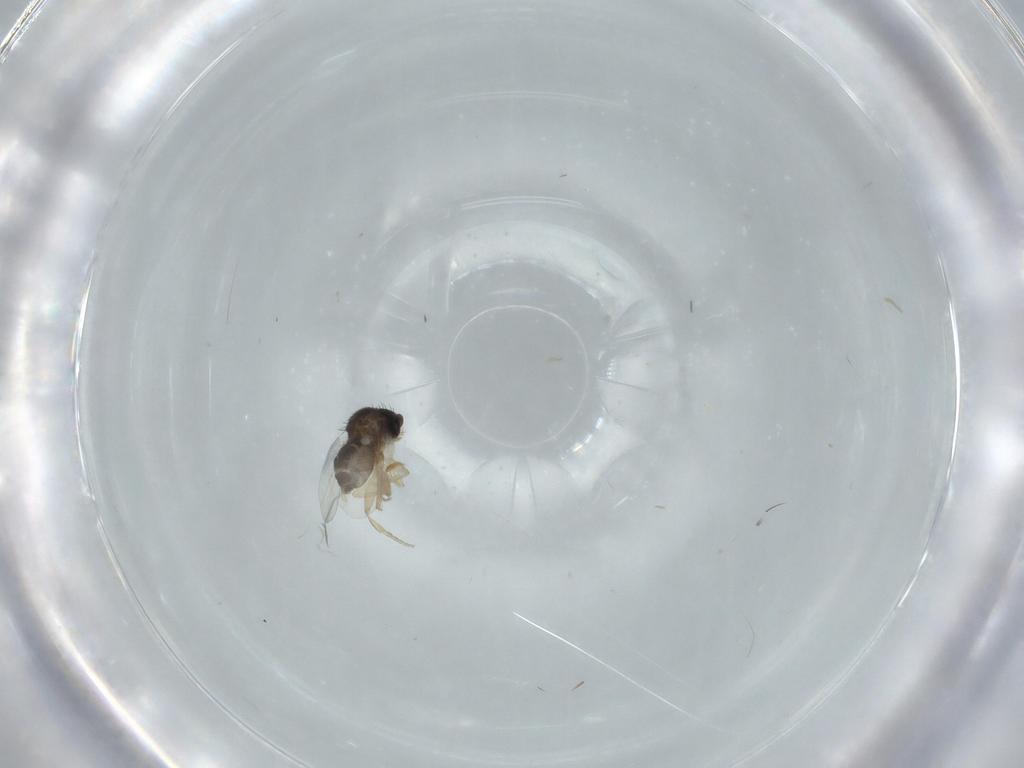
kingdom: Animalia
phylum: Arthropoda
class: Insecta
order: Diptera
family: Phoridae
